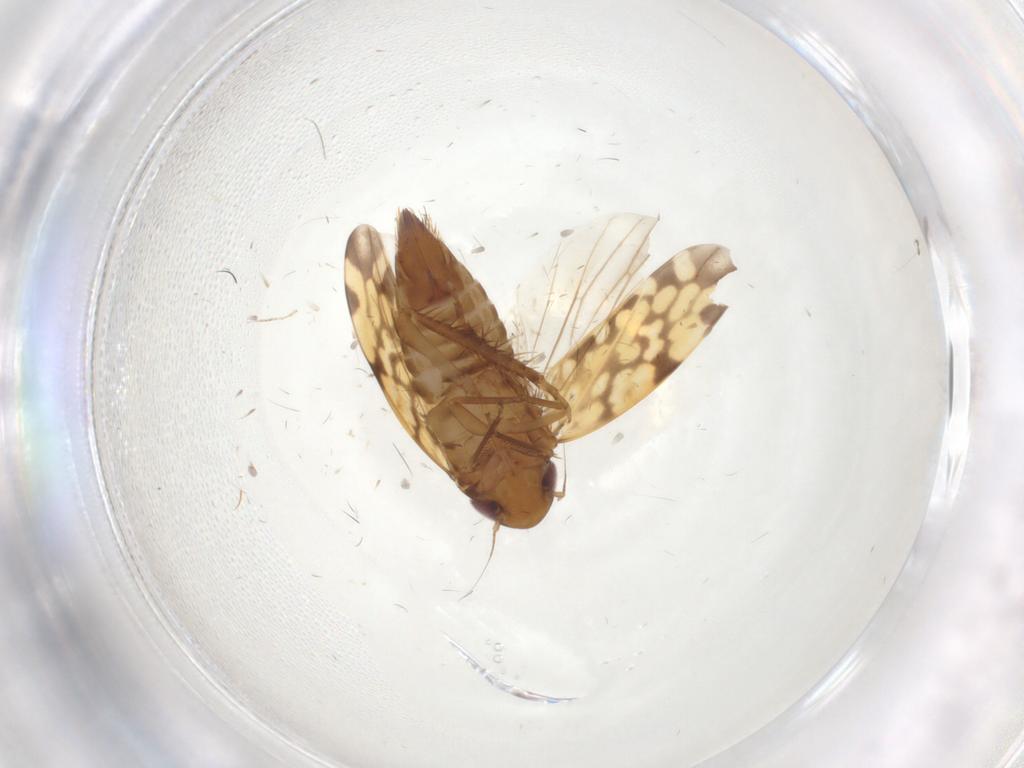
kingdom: Animalia
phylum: Arthropoda
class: Insecta
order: Hemiptera
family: Cicadellidae
